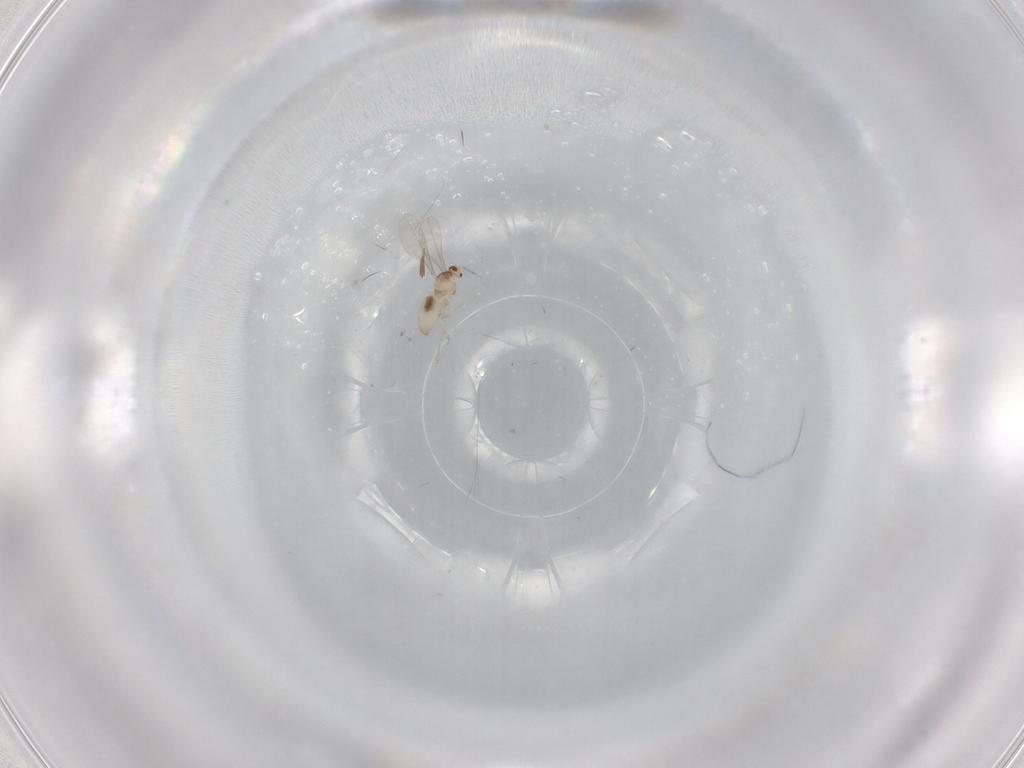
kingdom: Animalia
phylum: Arthropoda
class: Insecta
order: Diptera
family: Cecidomyiidae
